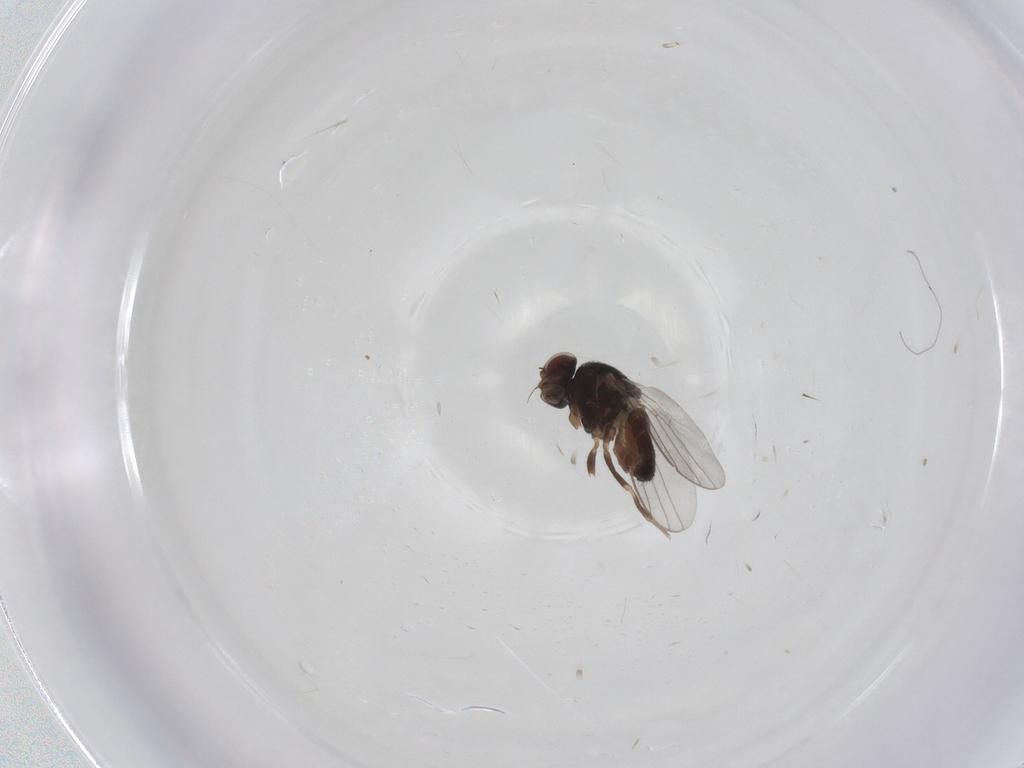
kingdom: Animalia
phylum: Arthropoda
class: Insecta
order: Diptera
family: Chloropidae
